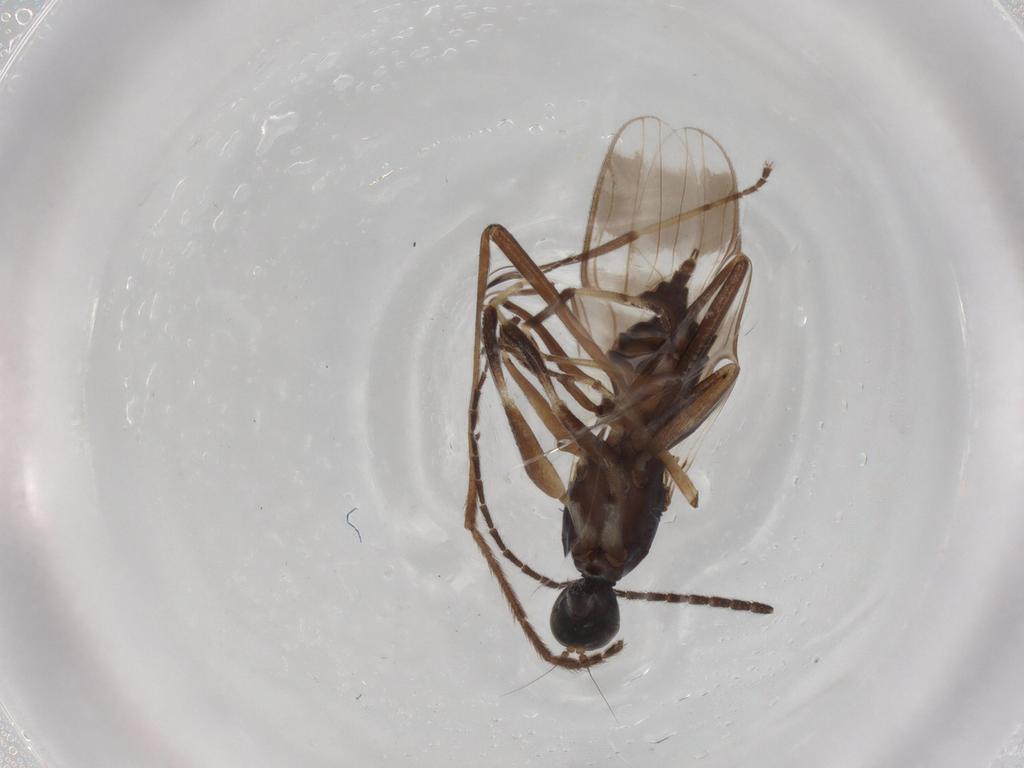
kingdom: Animalia
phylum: Arthropoda
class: Insecta
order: Diptera
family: Hybotidae
